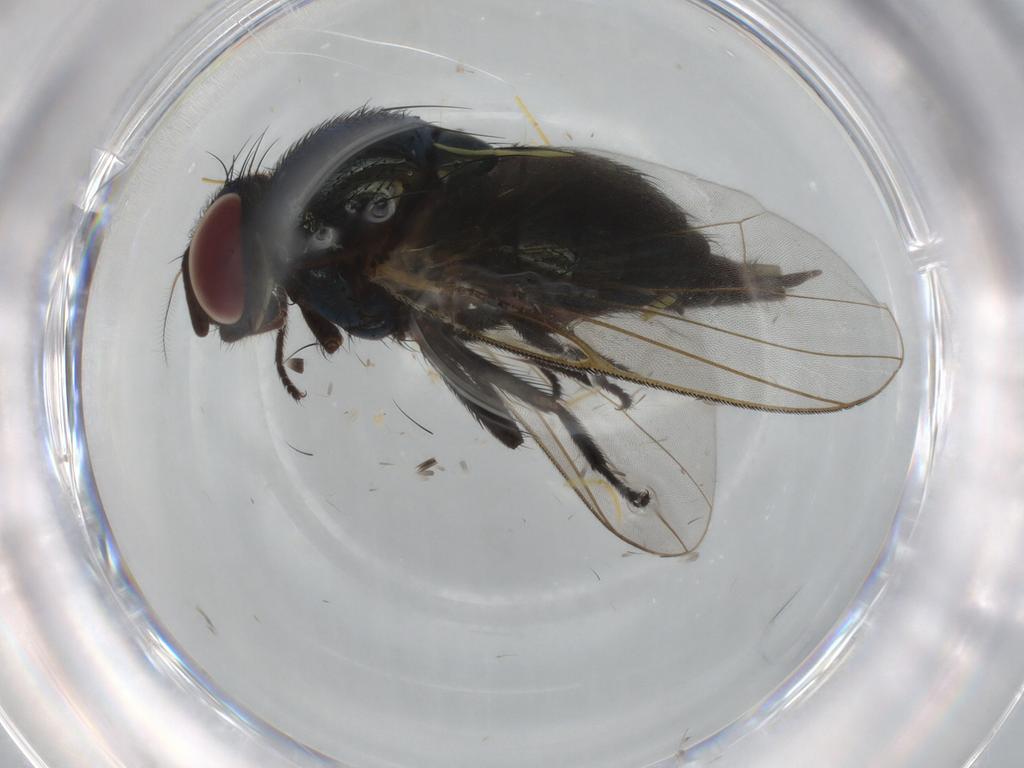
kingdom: Animalia
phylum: Arthropoda
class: Insecta
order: Diptera
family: Lonchaeidae
